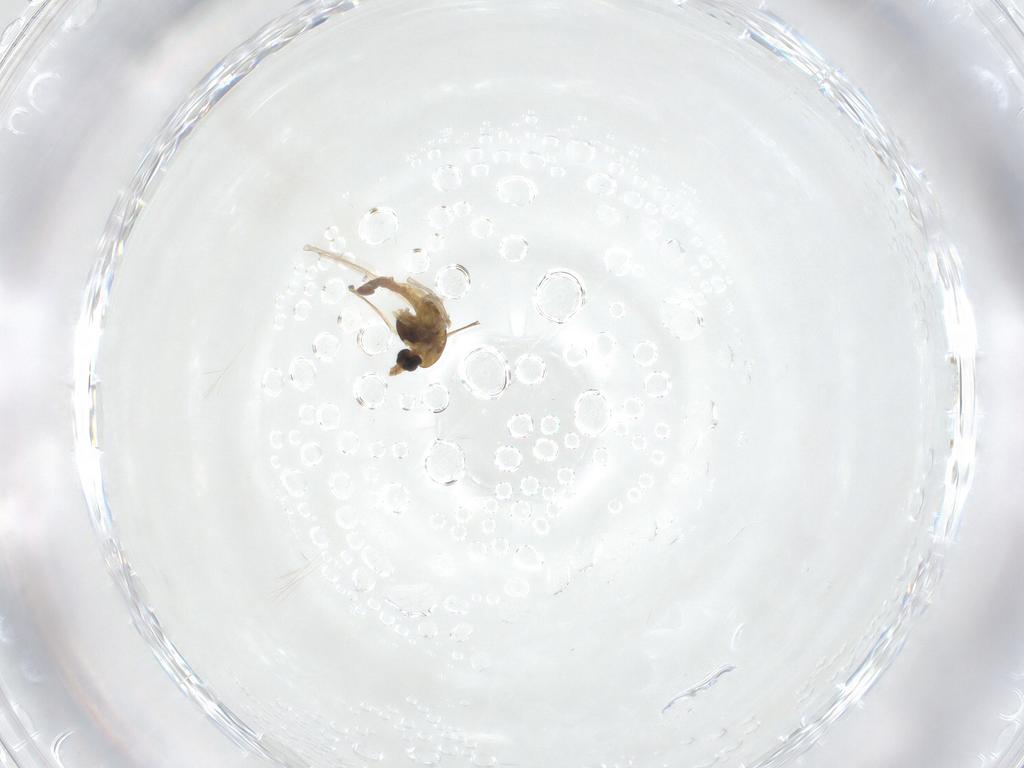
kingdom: Animalia
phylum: Arthropoda
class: Insecta
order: Diptera
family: Chironomidae
